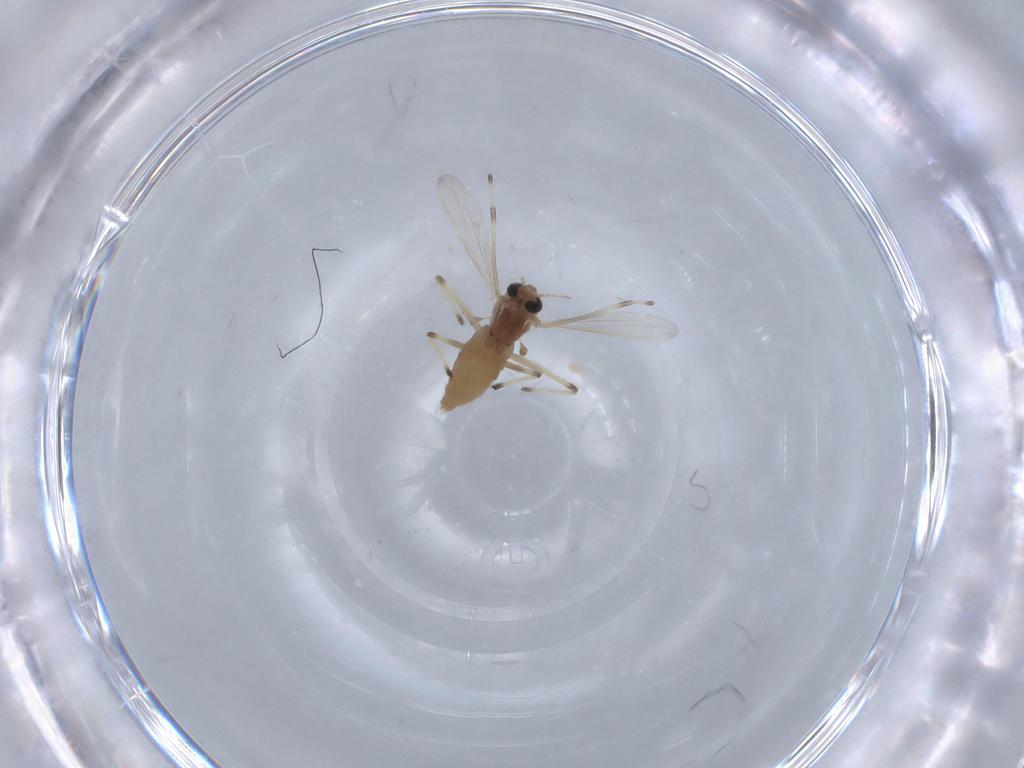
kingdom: Animalia
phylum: Arthropoda
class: Insecta
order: Diptera
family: Chironomidae
